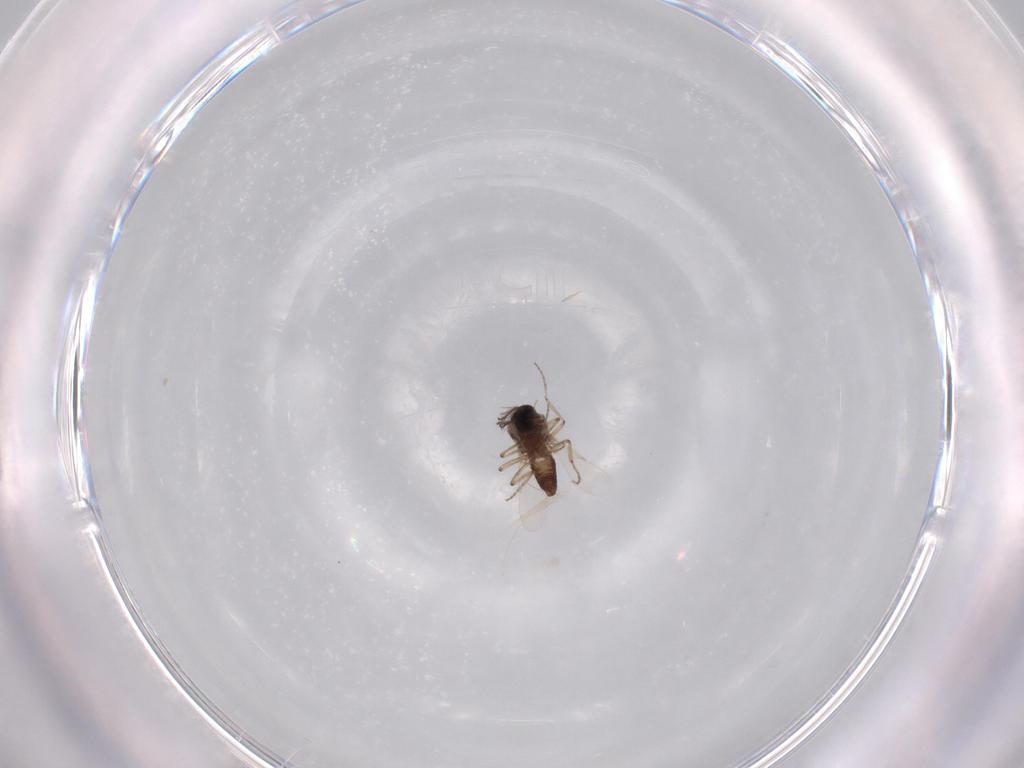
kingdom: Animalia
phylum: Arthropoda
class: Insecta
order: Diptera
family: Ceratopogonidae
